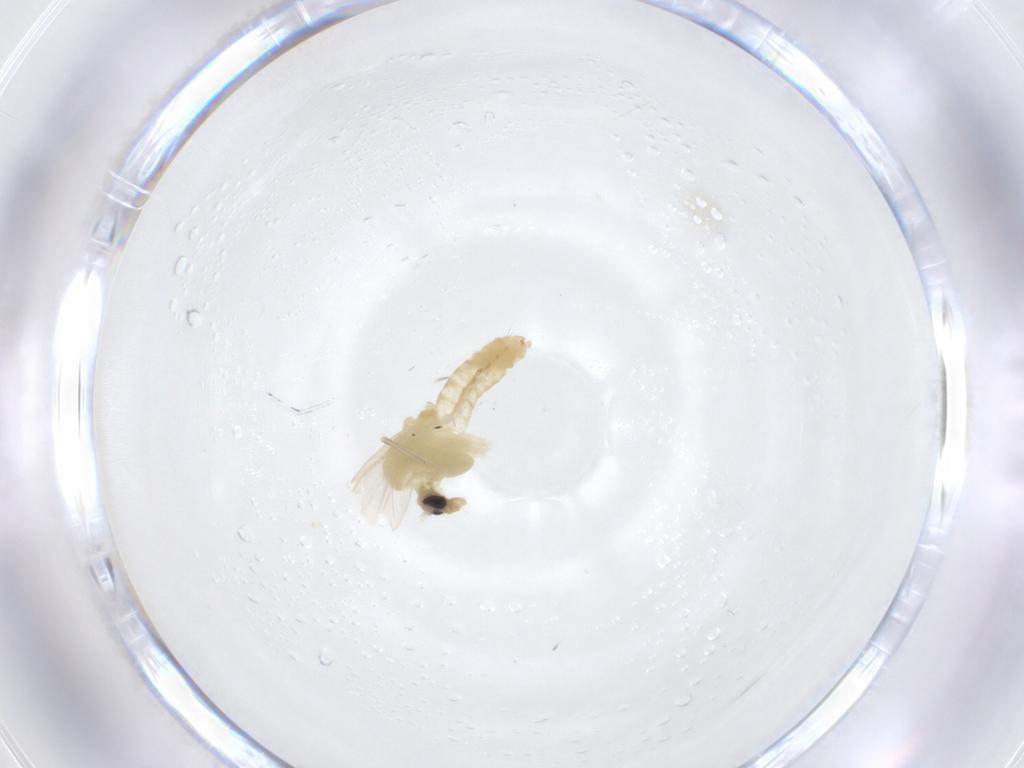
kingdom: Animalia
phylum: Arthropoda
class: Insecta
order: Diptera
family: Chironomidae
